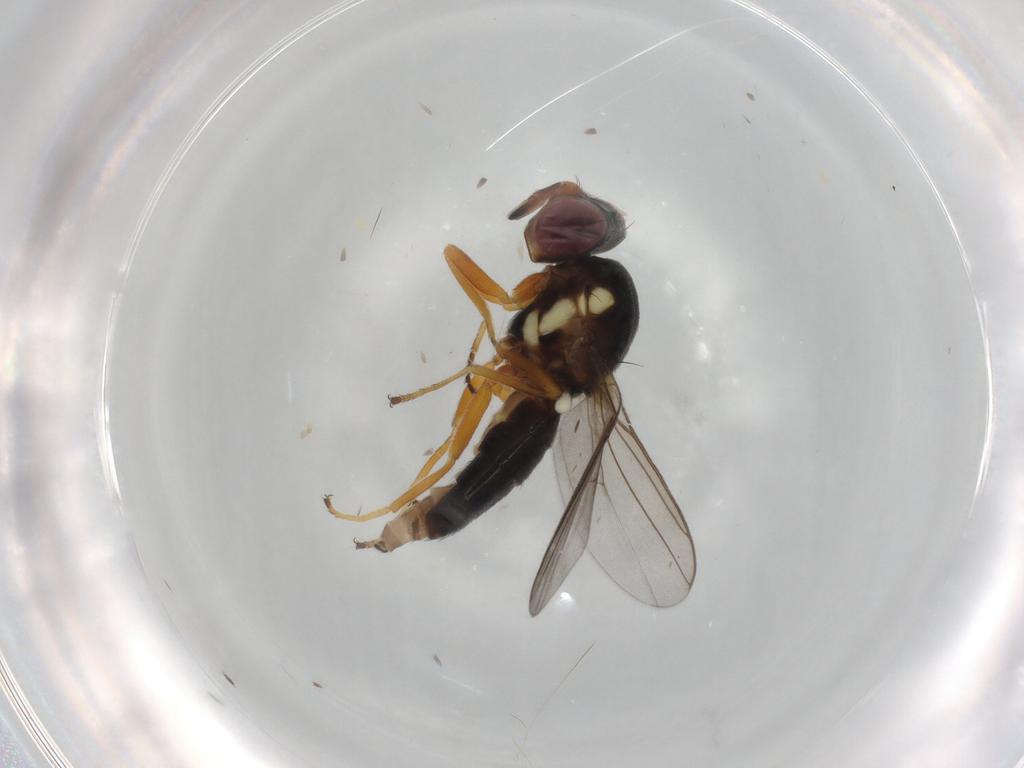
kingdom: Animalia
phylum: Arthropoda
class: Insecta
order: Diptera
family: Chloropidae
